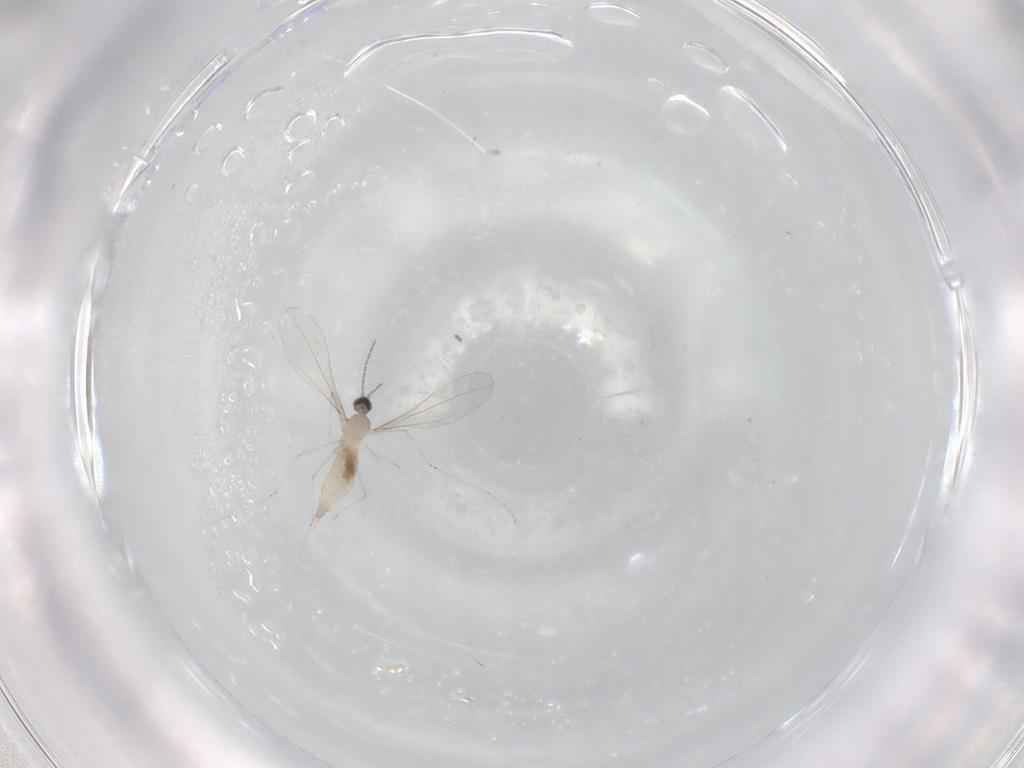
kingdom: Animalia
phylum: Arthropoda
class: Insecta
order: Diptera
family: Cecidomyiidae
